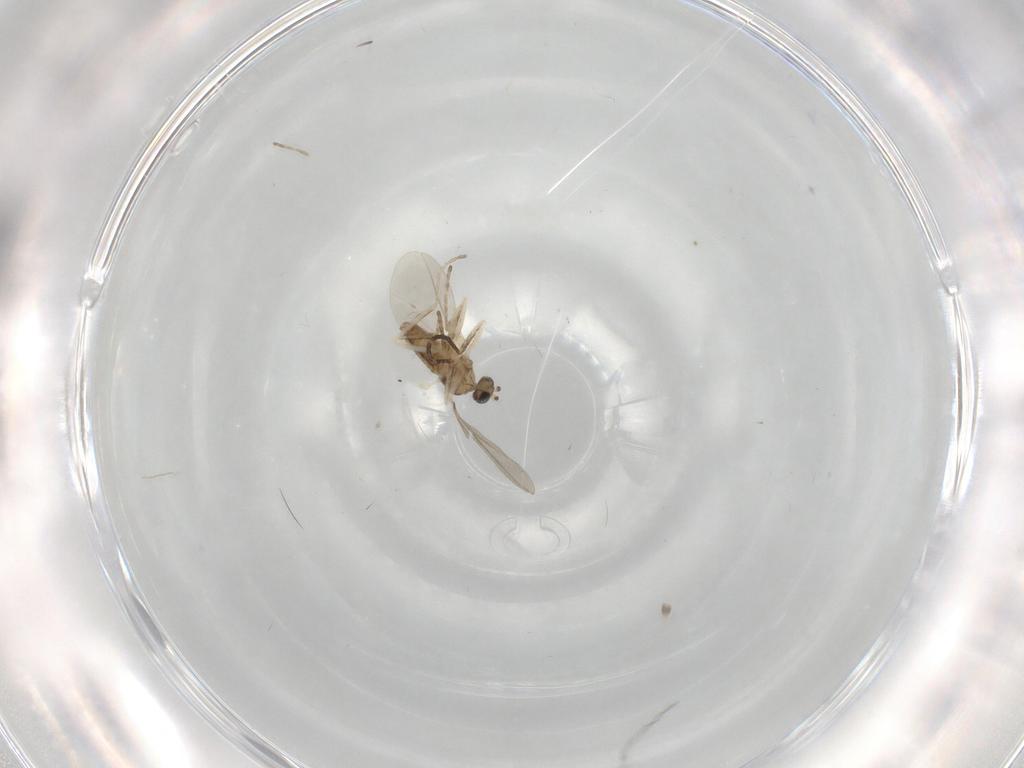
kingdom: Animalia
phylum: Arthropoda
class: Insecta
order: Diptera
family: Cecidomyiidae
